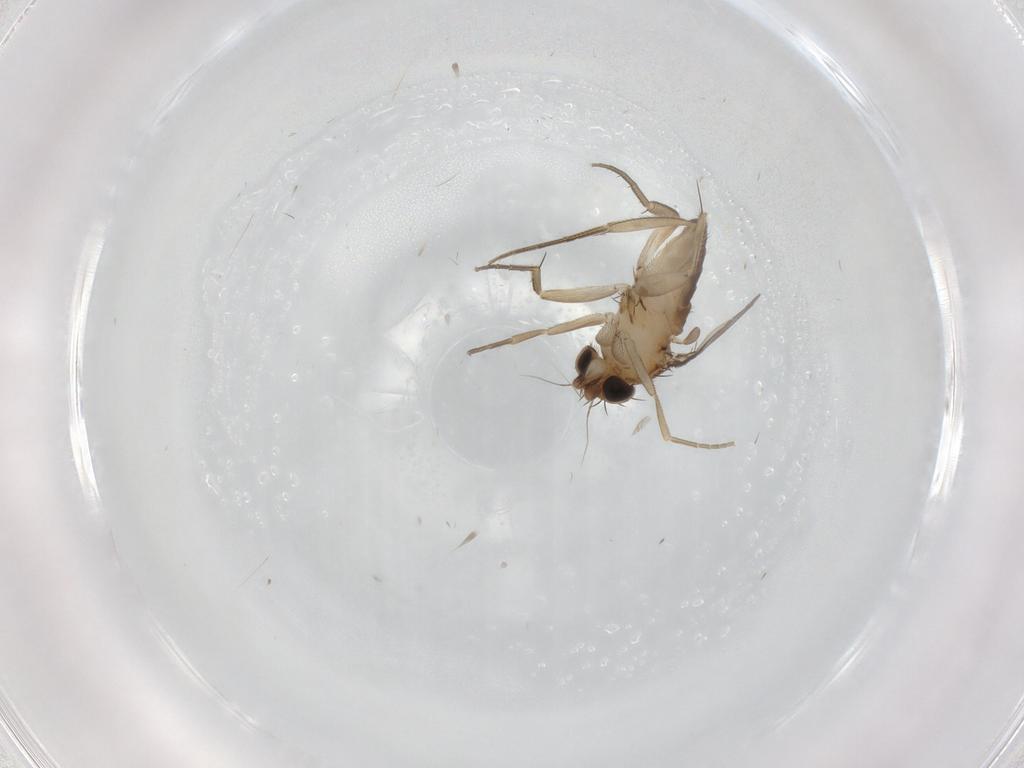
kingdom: Animalia
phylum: Arthropoda
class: Insecta
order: Diptera
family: Phoridae
